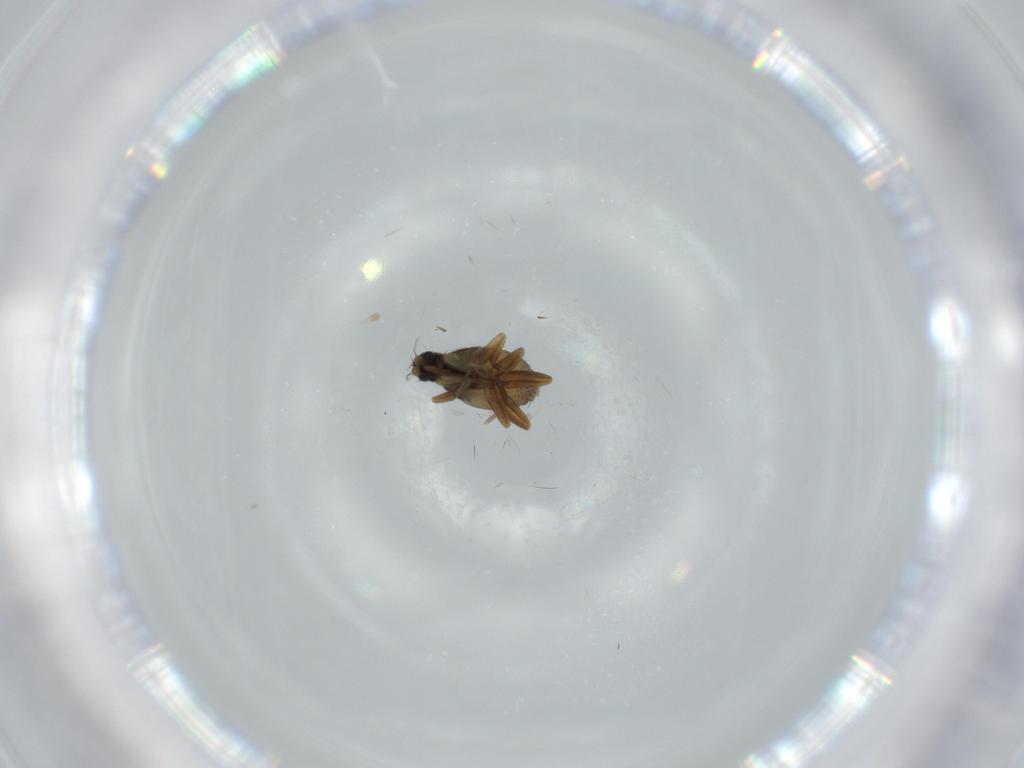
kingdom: Animalia
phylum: Arthropoda
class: Insecta
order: Diptera
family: Phoridae
